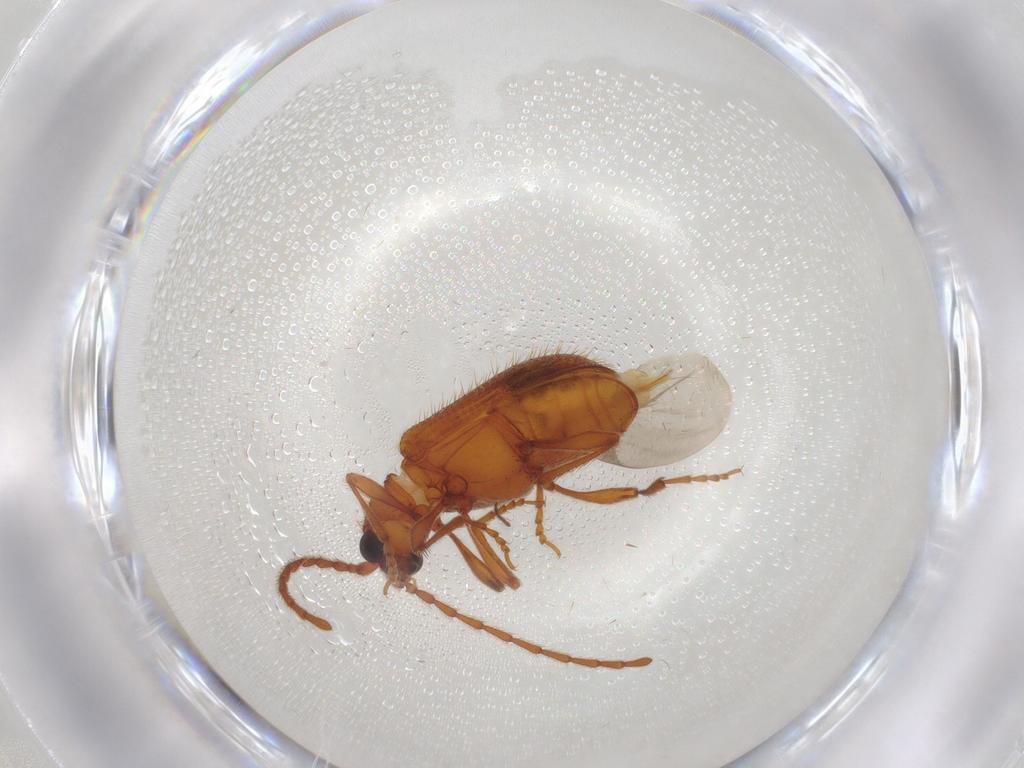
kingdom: Animalia
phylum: Arthropoda
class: Insecta
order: Coleoptera
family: Ptinidae
